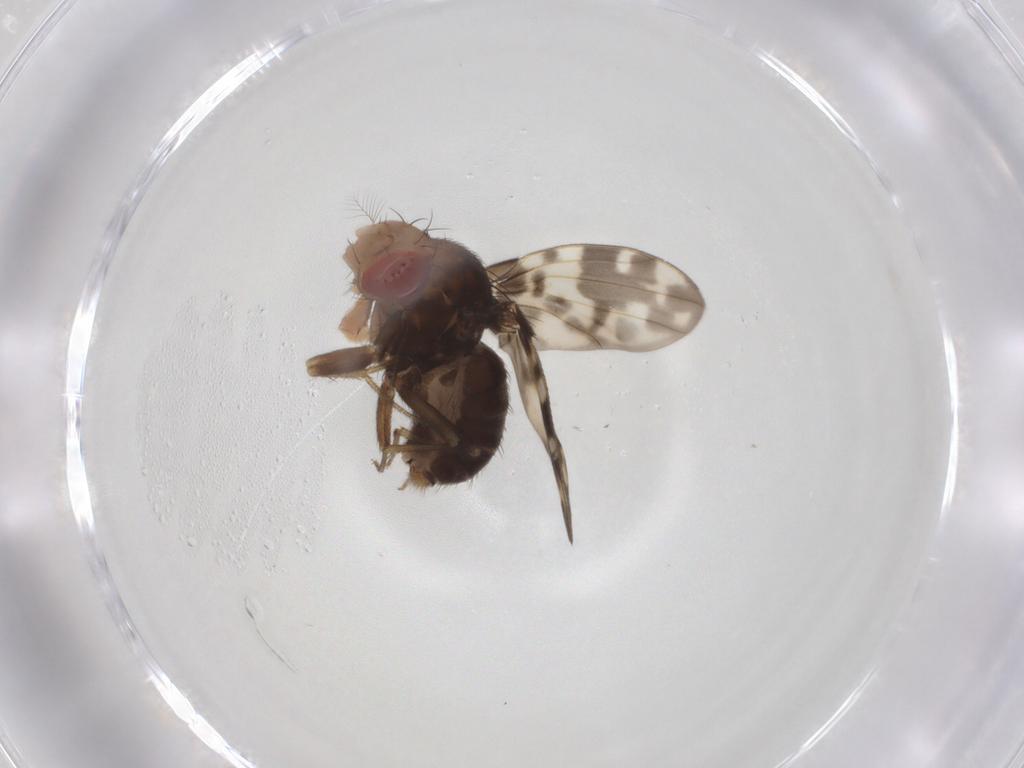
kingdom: Animalia
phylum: Arthropoda
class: Insecta
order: Diptera
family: Drosophilidae
